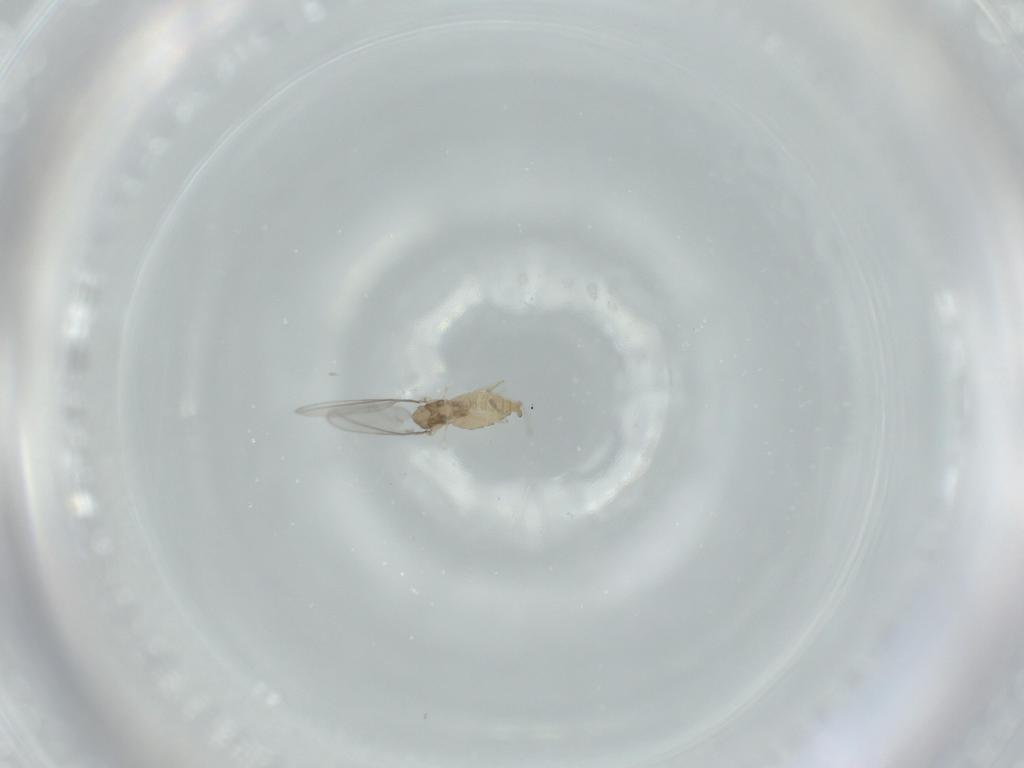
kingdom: Animalia
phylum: Arthropoda
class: Insecta
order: Diptera
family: Cecidomyiidae
